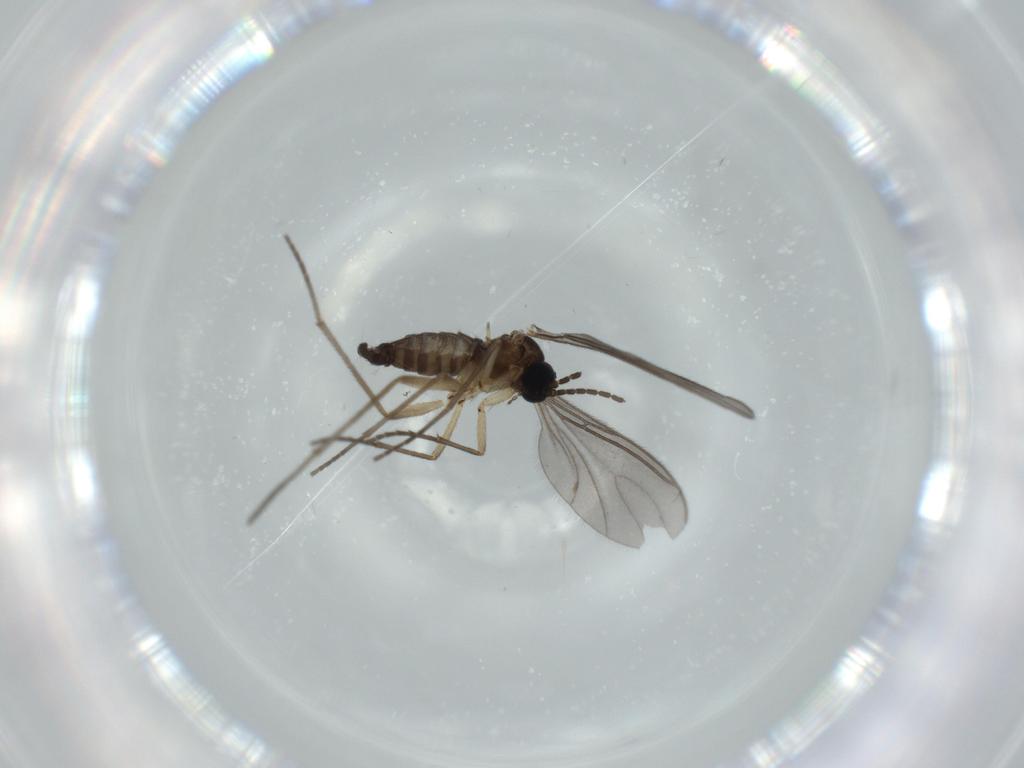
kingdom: Animalia
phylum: Arthropoda
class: Insecta
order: Diptera
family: Sciaridae
